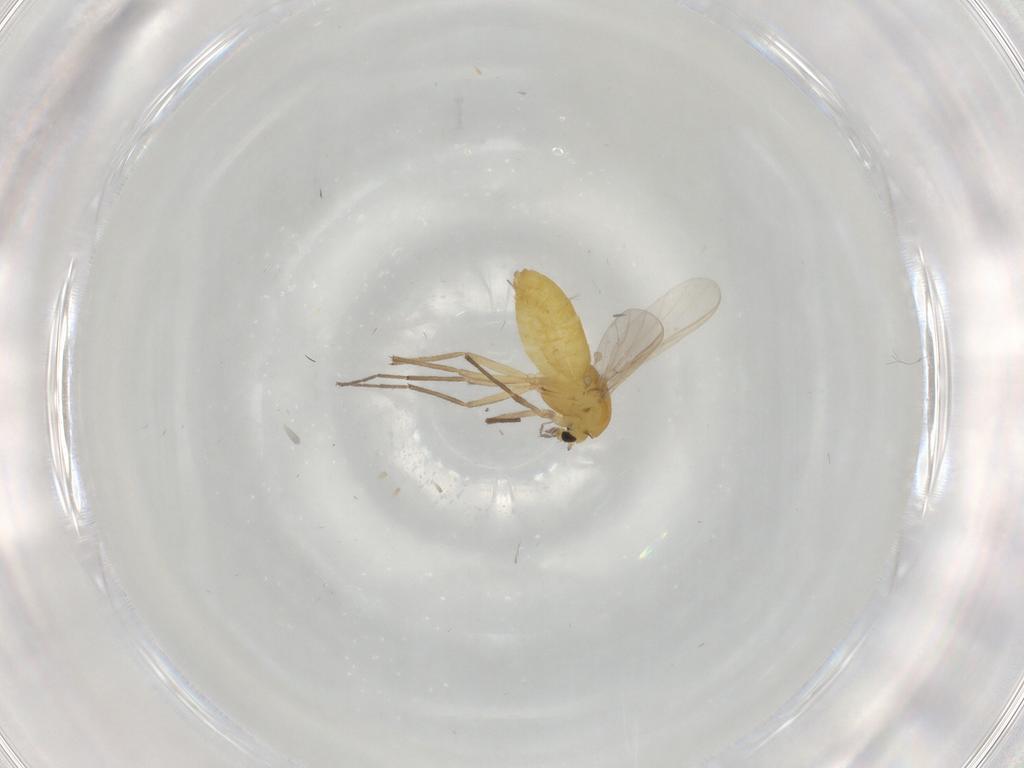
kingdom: Animalia
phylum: Arthropoda
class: Insecta
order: Diptera
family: Chironomidae
